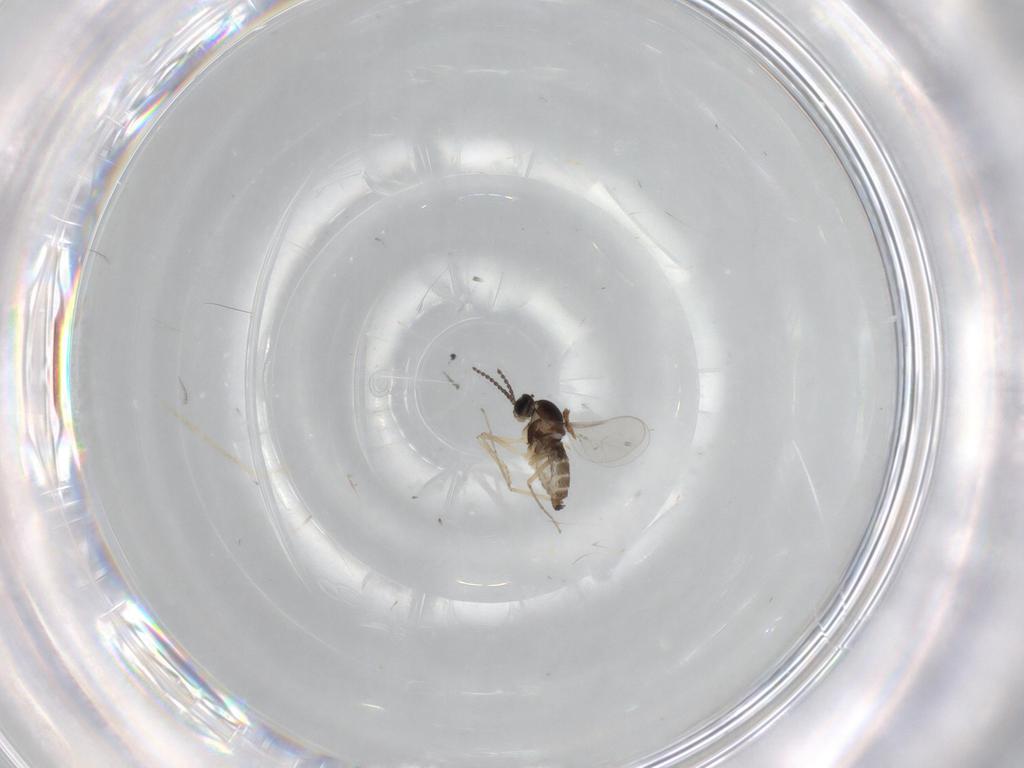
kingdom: Animalia
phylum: Arthropoda
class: Insecta
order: Diptera
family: Cecidomyiidae
